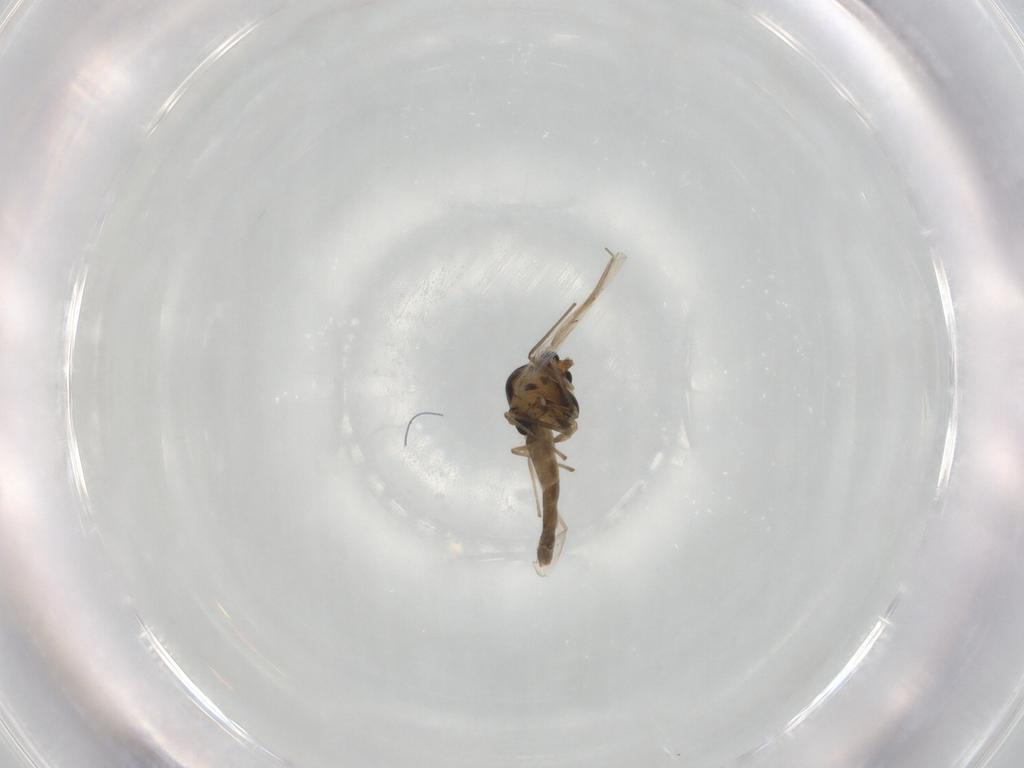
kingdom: Animalia
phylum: Arthropoda
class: Insecta
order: Diptera
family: Chironomidae
